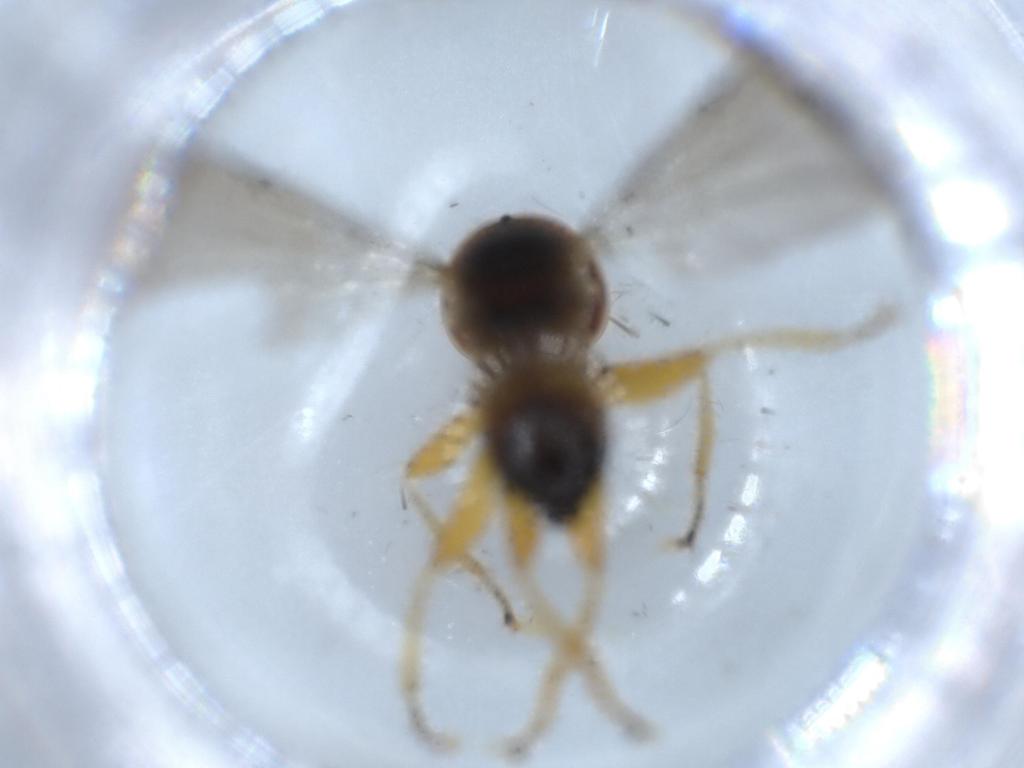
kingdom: Animalia
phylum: Arthropoda
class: Insecta
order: Diptera
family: Pipunculidae
